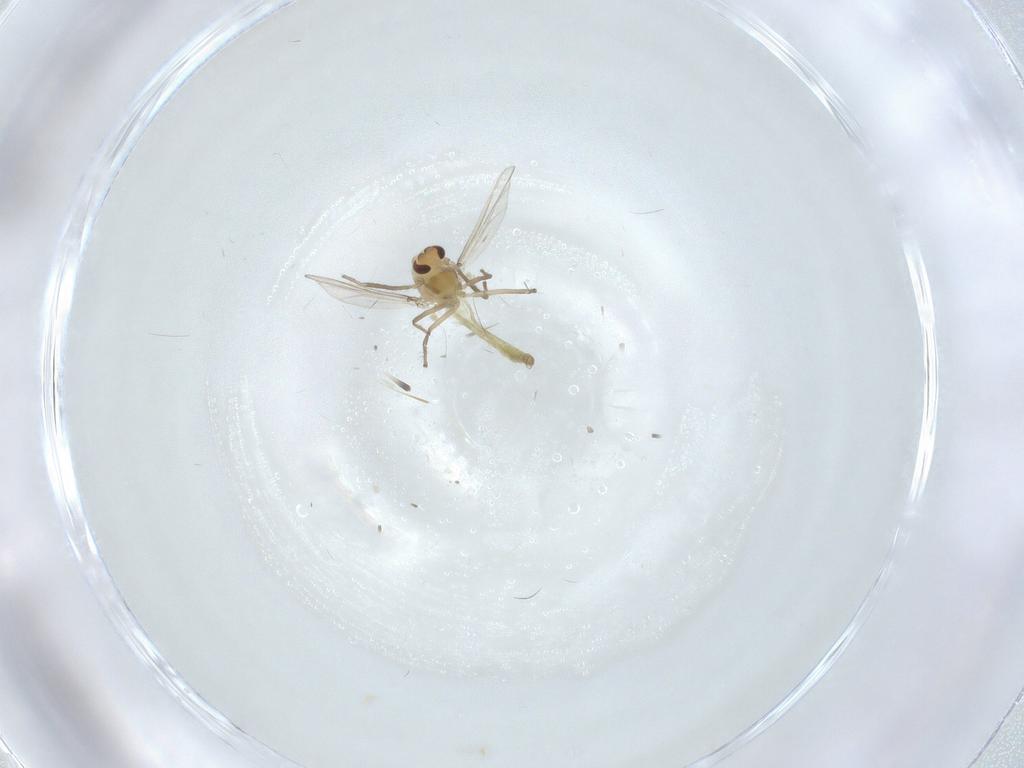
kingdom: Animalia
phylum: Arthropoda
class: Insecta
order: Diptera
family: Chironomidae
